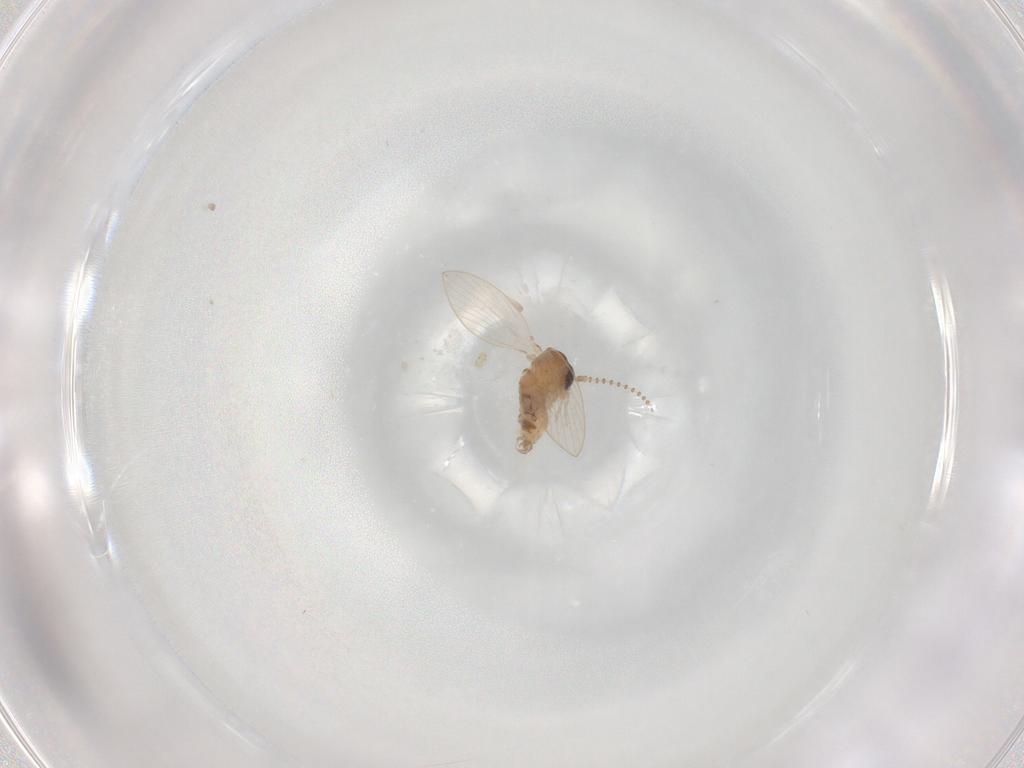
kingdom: Animalia
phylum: Arthropoda
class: Insecta
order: Diptera
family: Psychodidae
